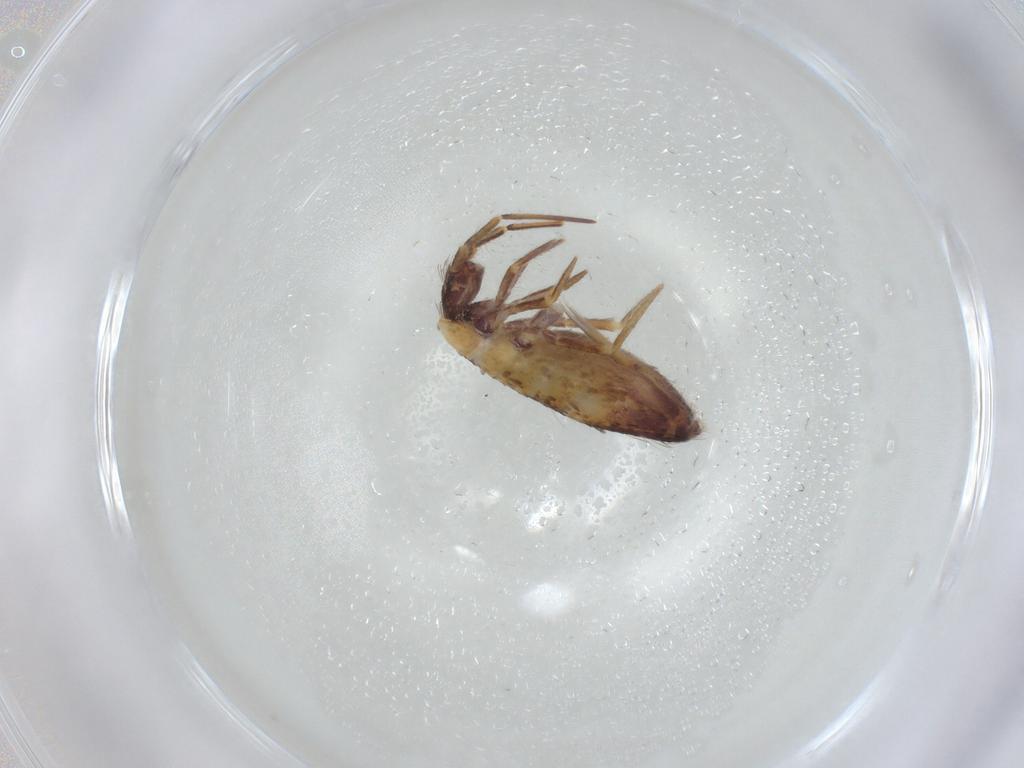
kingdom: Animalia
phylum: Arthropoda
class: Collembola
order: Entomobryomorpha
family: Entomobryidae
